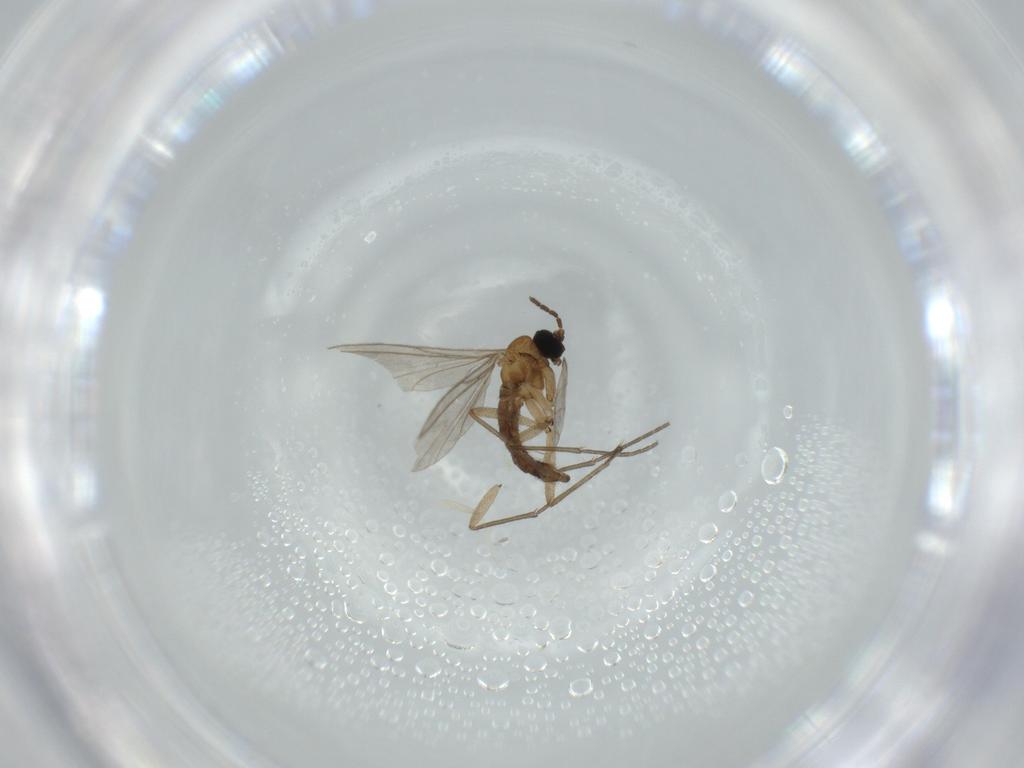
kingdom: Animalia
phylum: Arthropoda
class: Insecta
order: Diptera
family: Sciaridae
